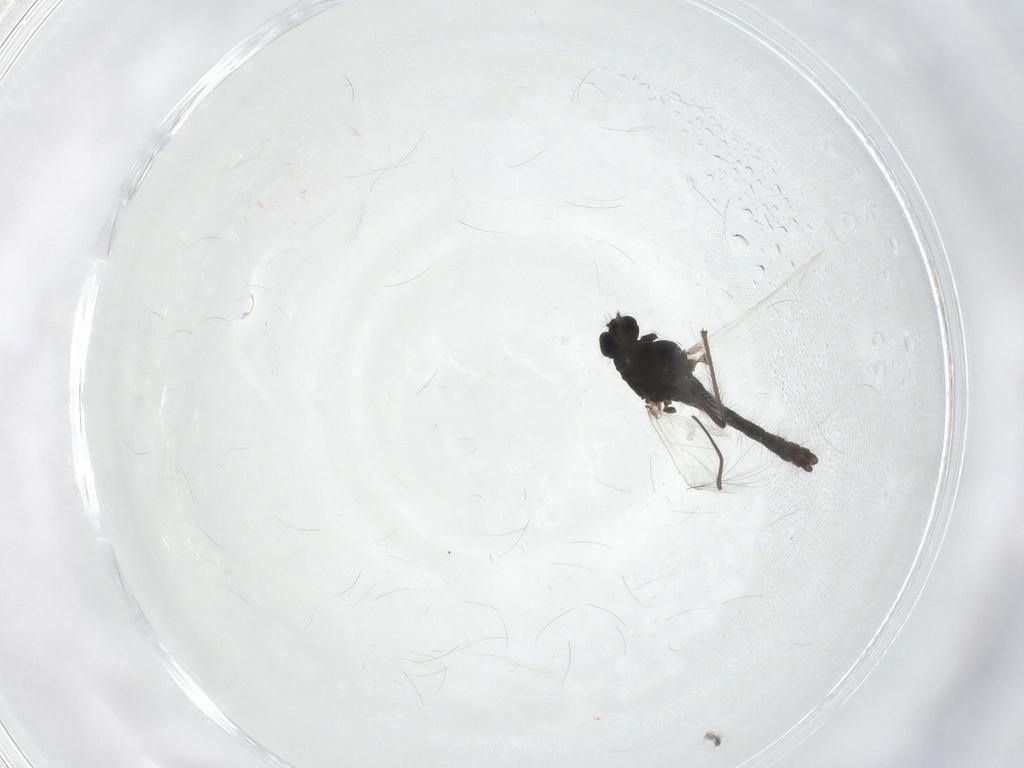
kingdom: Animalia
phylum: Arthropoda
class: Insecta
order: Diptera
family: Chironomidae
